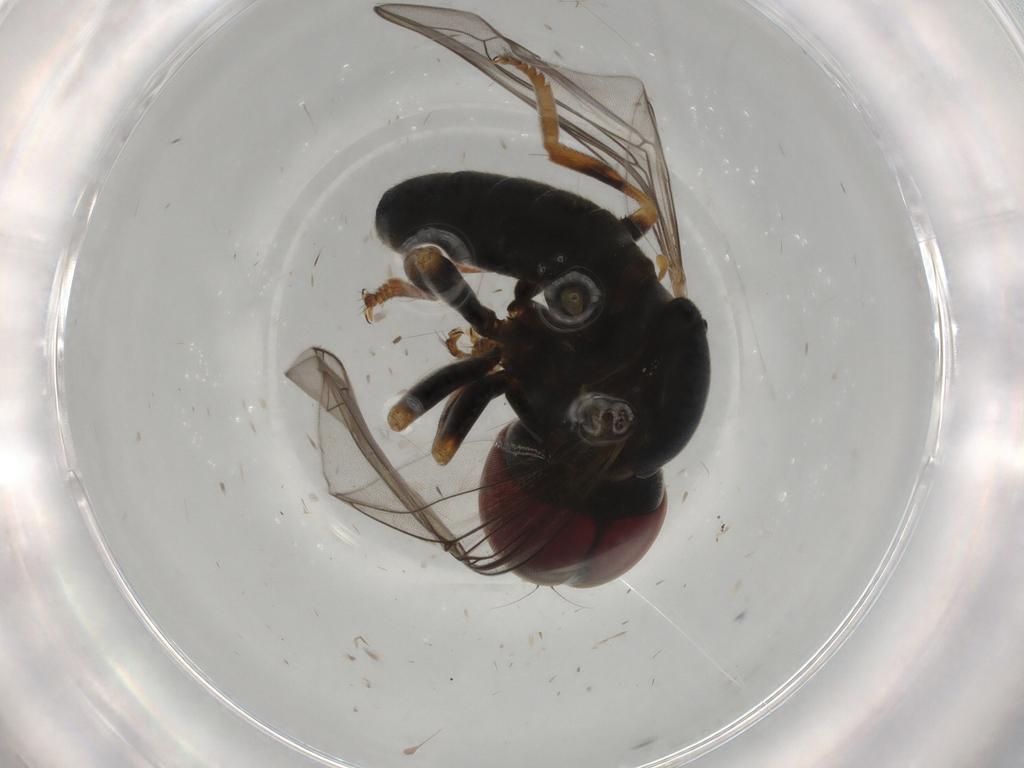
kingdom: Animalia
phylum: Arthropoda
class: Insecta
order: Diptera
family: Pipunculidae
